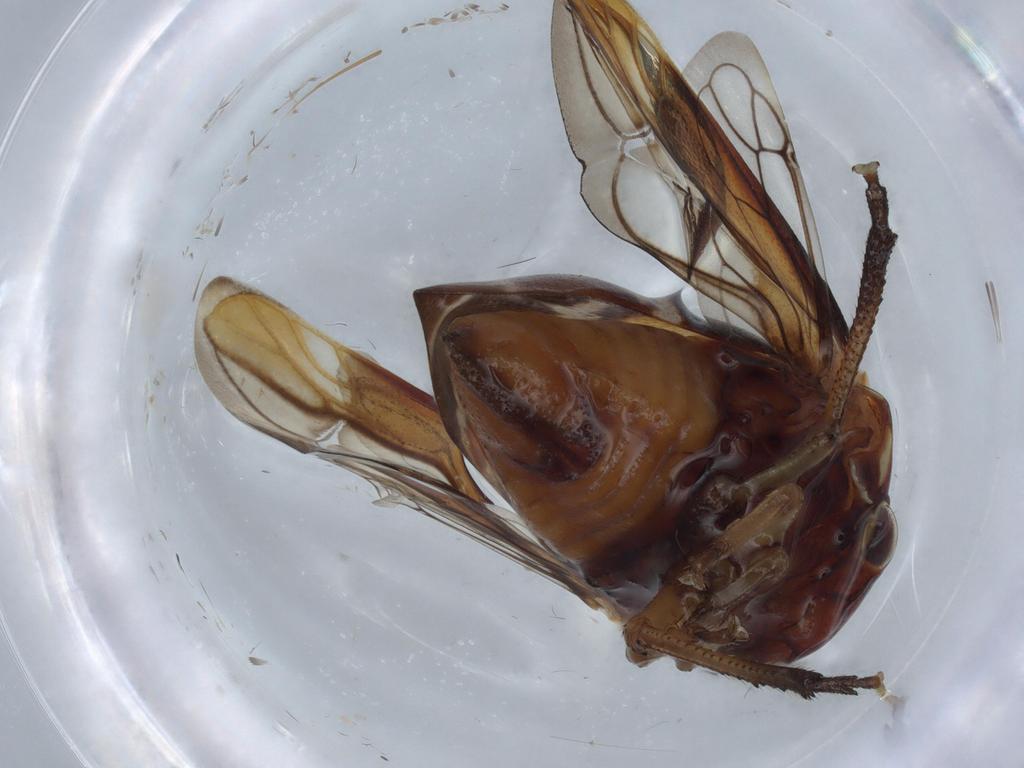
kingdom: Animalia
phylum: Arthropoda
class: Insecta
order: Hemiptera
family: Membracidae
